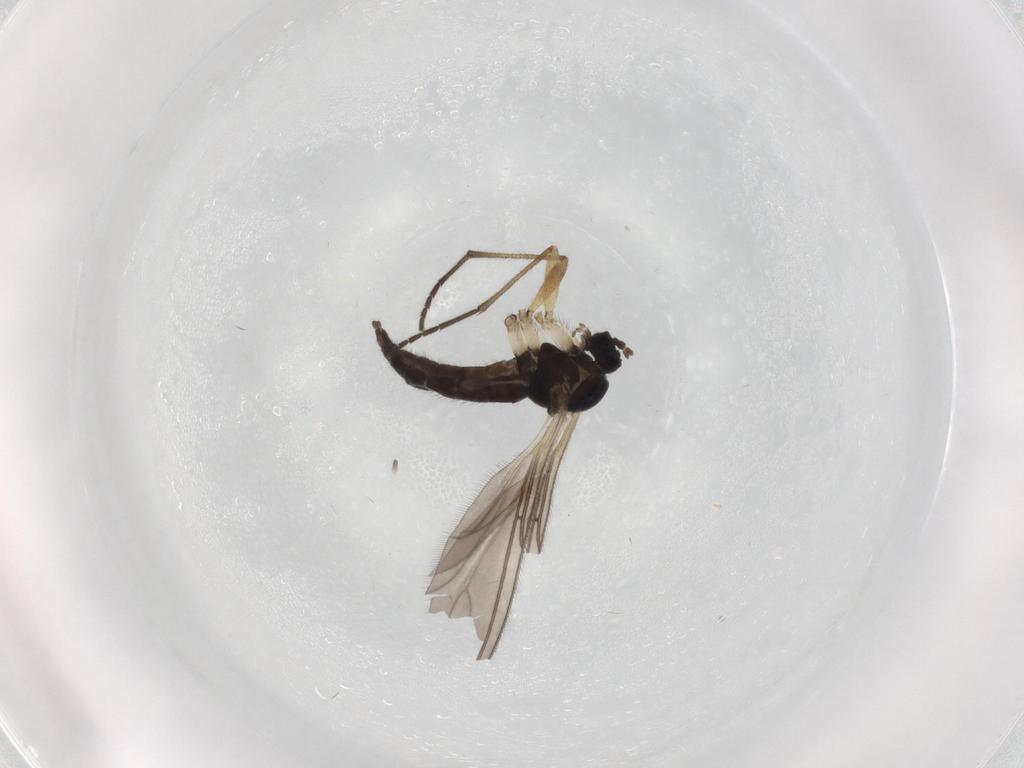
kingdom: Animalia
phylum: Arthropoda
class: Insecta
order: Diptera
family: Sciaridae
